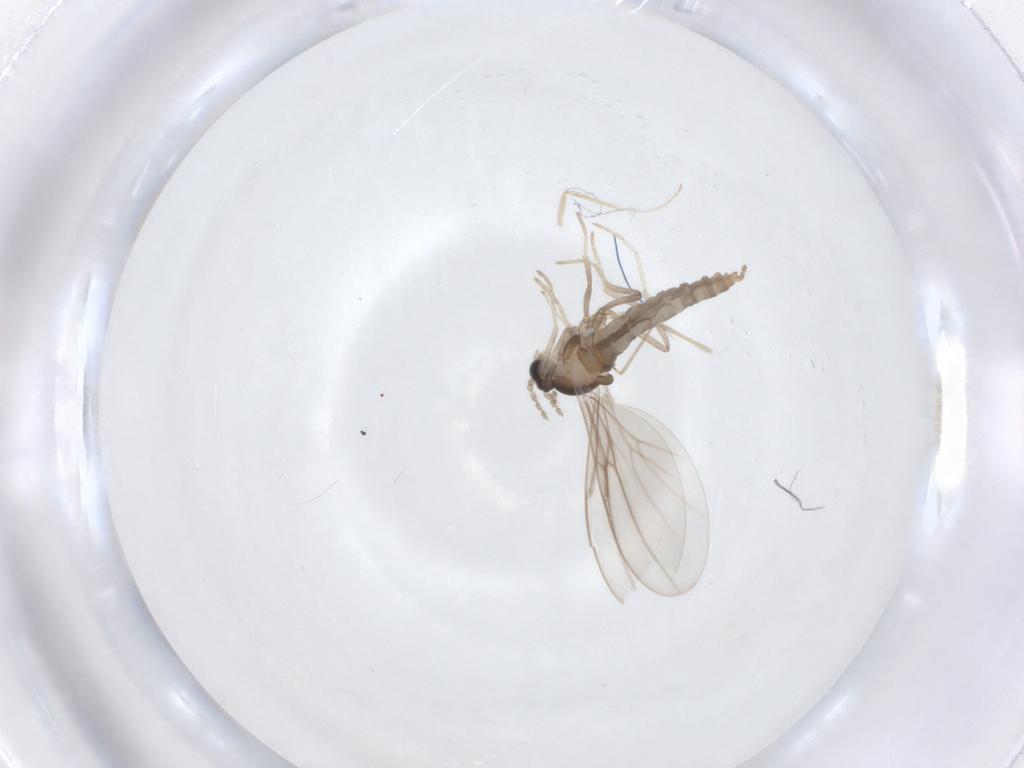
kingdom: Animalia
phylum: Arthropoda
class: Insecta
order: Diptera
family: Cecidomyiidae
